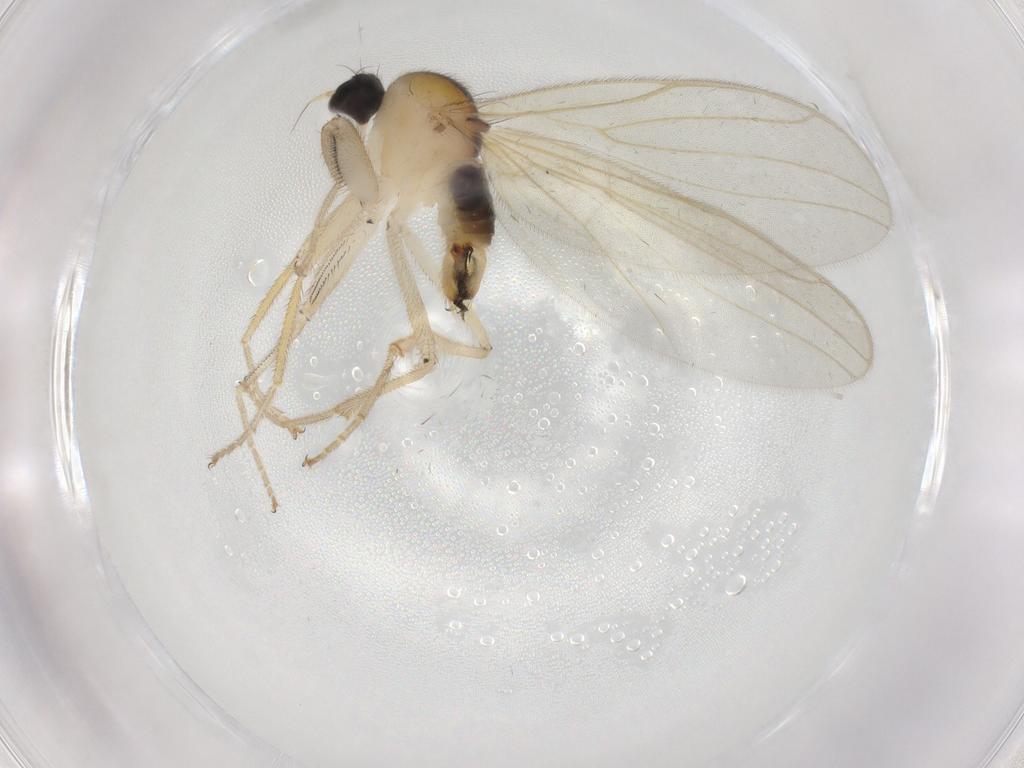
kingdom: Animalia
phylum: Arthropoda
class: Insecta
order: Diptera
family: Hybotidae
